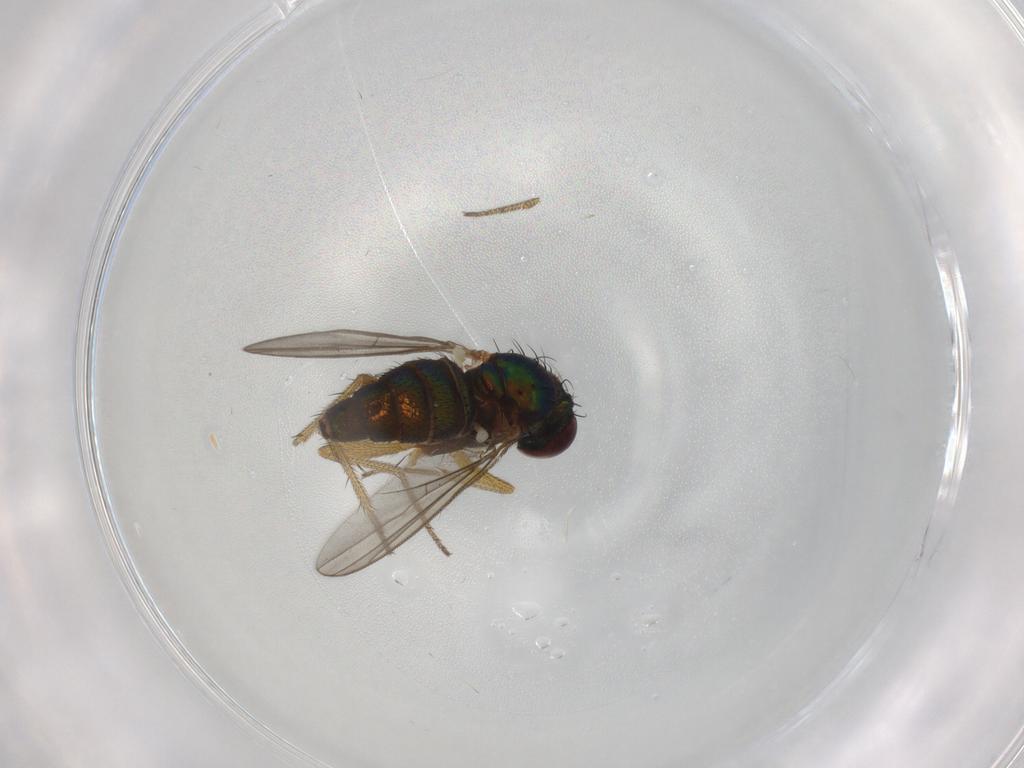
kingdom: Animalia
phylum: Arthropoda
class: Insecta
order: Diptera
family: Dolichopodidae
